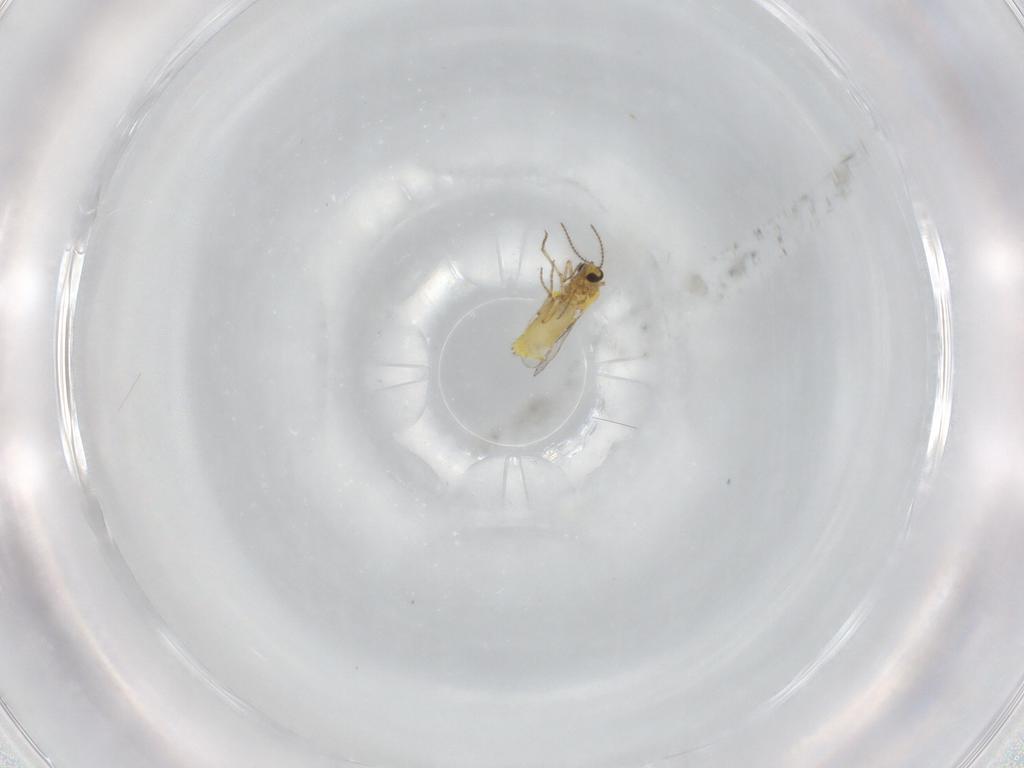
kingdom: Animalia
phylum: Arthropoda
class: Insecta
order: Diptera
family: Ceratopogonidae
